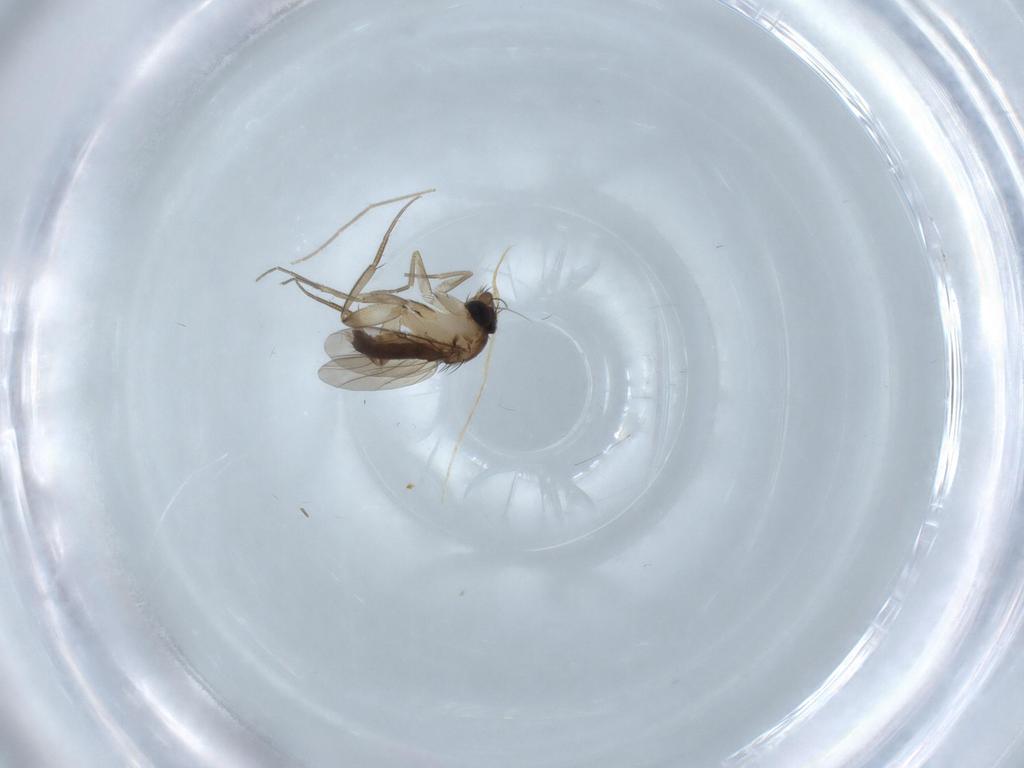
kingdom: Animalia
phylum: Arthropoda
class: Insecta
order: Diptera
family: Phoridae
